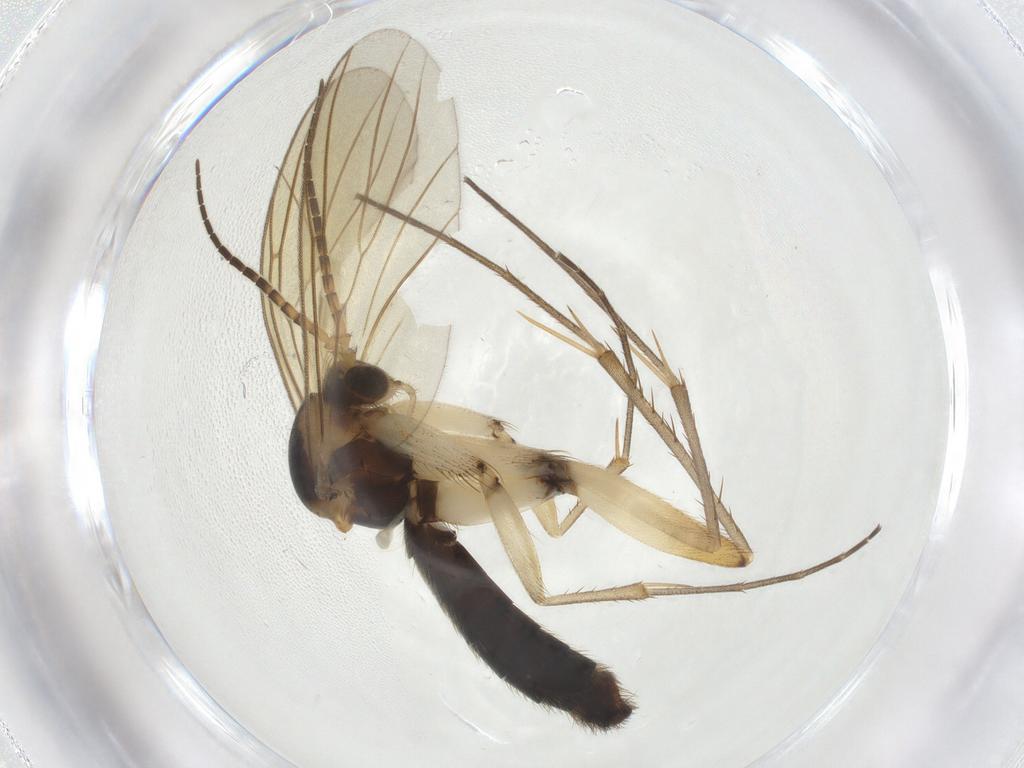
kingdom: Animalia
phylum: Arthropoda
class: Insecta
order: Diptera
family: Mycetophilidae
